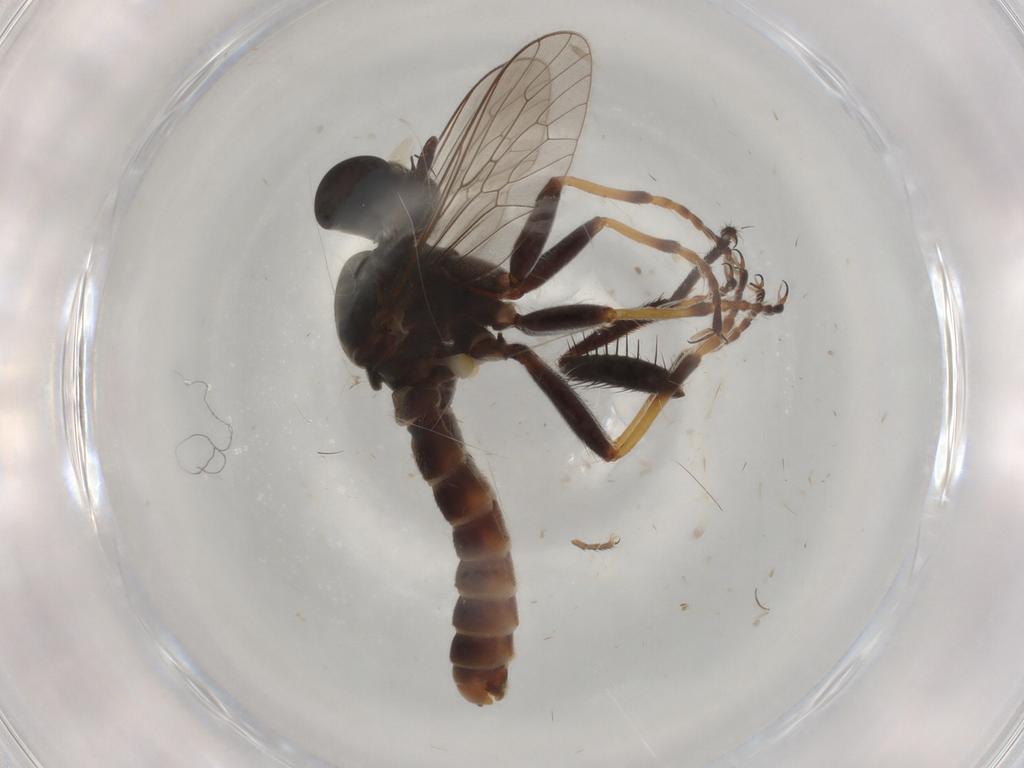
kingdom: Animalia
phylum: Arthropoda
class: Insecta
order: Diptera
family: Asilidae
